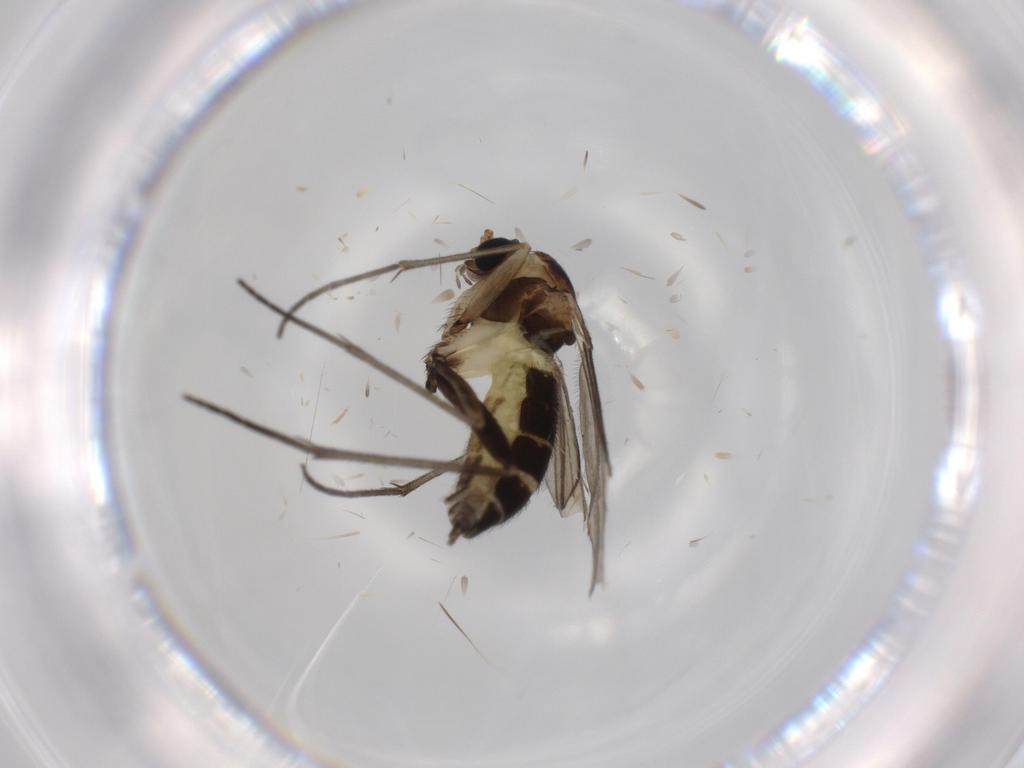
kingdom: Animalia
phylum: Arthropoda
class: Insecta
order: Diptera
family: Sciaridae
